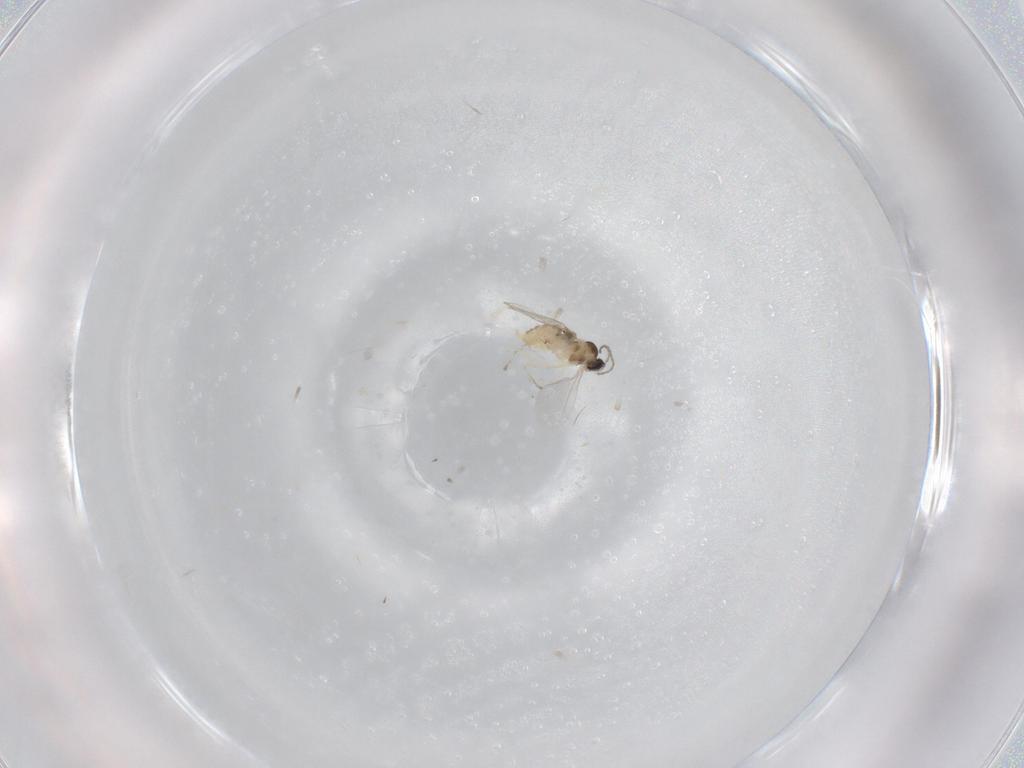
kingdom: Animalia
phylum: Arthropoda
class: Insecta
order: Diptera
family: Cecidomyiidae
